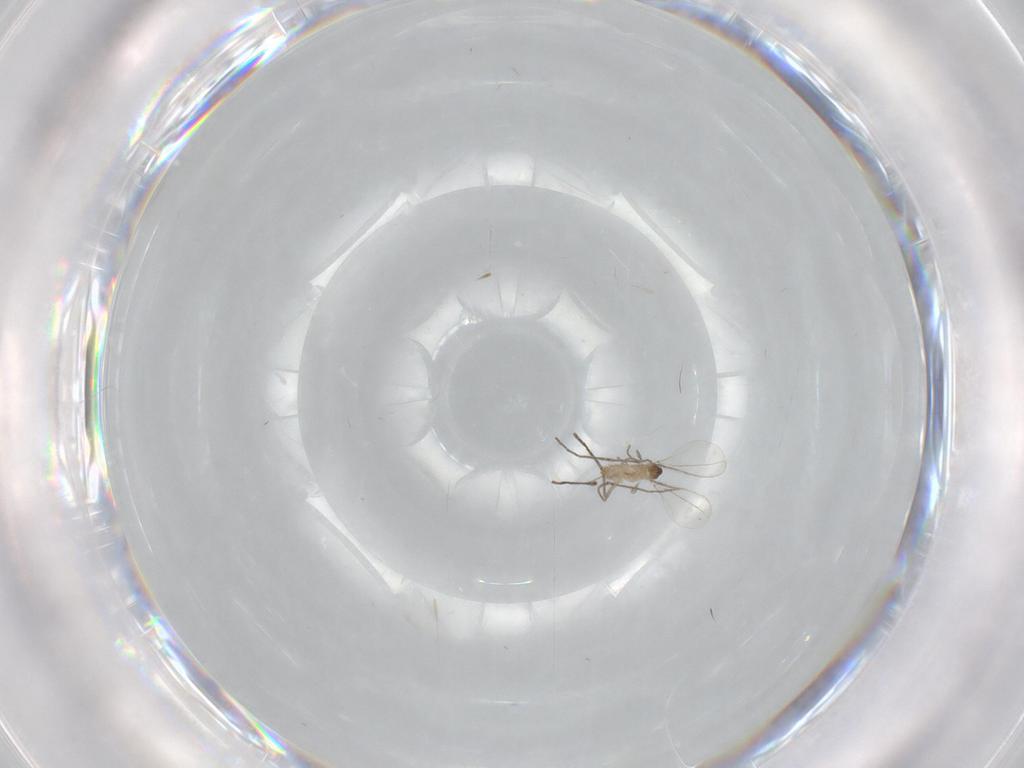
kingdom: Animalia
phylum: Arthropoda
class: Insecta
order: Diptera
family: Cecidomyiidae
